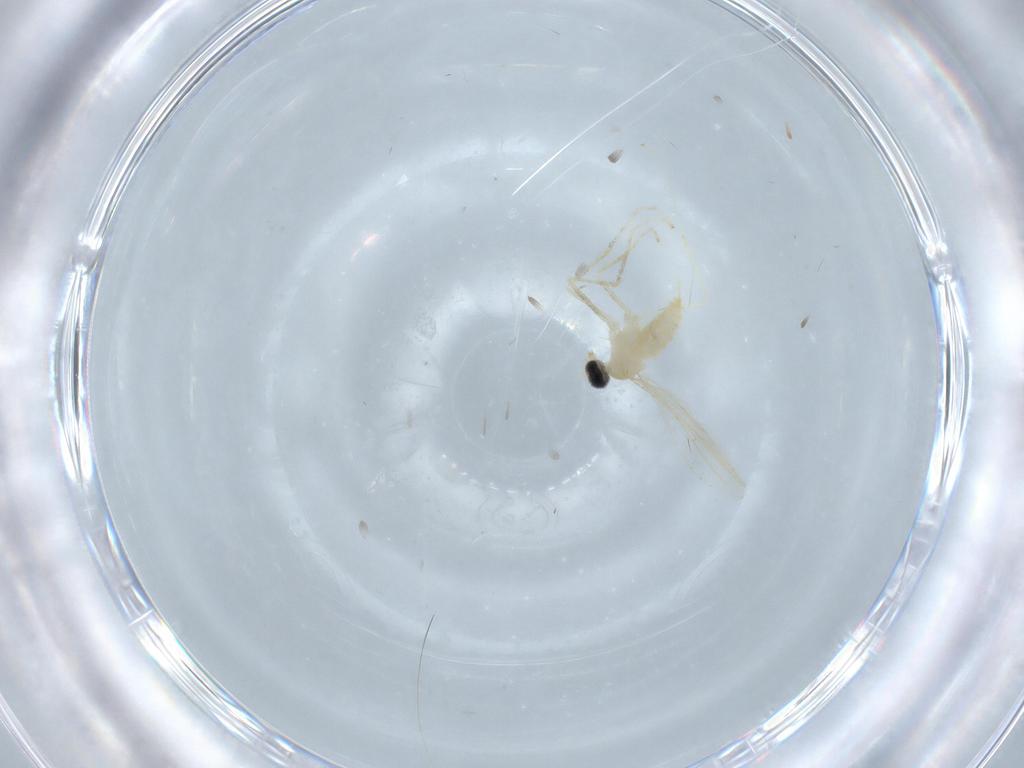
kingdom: Animalia
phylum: Arthropoda
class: Insecta
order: Diptera
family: Cecidomyiidae
